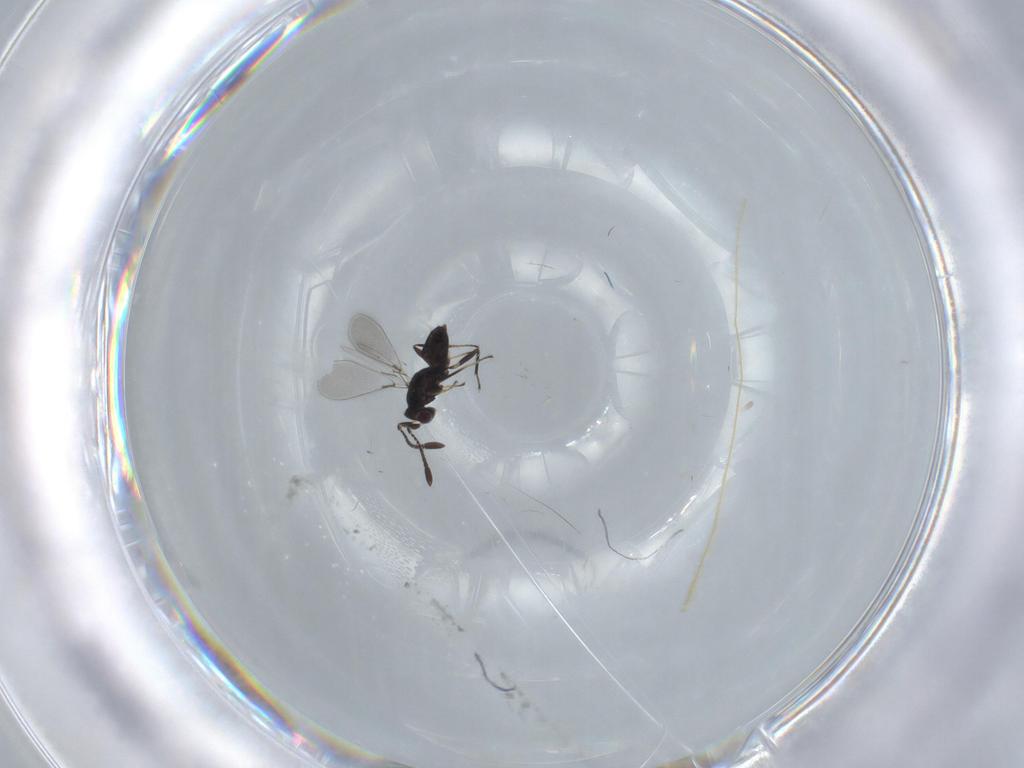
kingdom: Animalia
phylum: Arthropoda
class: Insecta
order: Hymenoptera
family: Mymaridae
